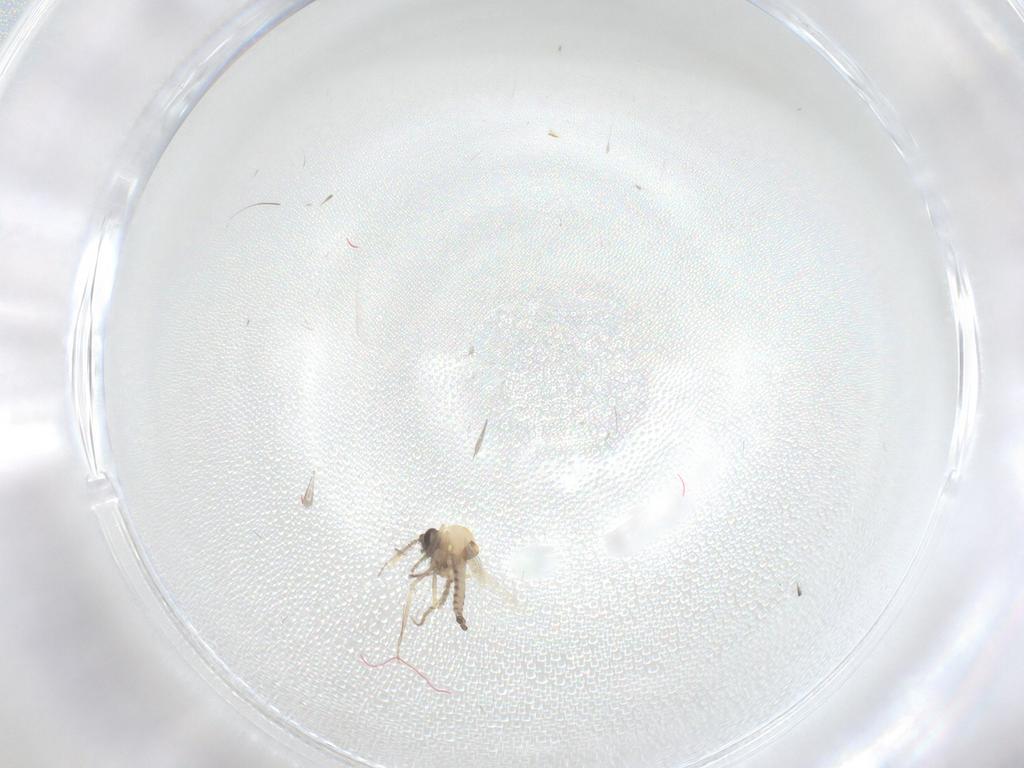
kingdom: Animalia
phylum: Arthropoda
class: Insecta
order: Diptera
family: Ceratopogonidae
